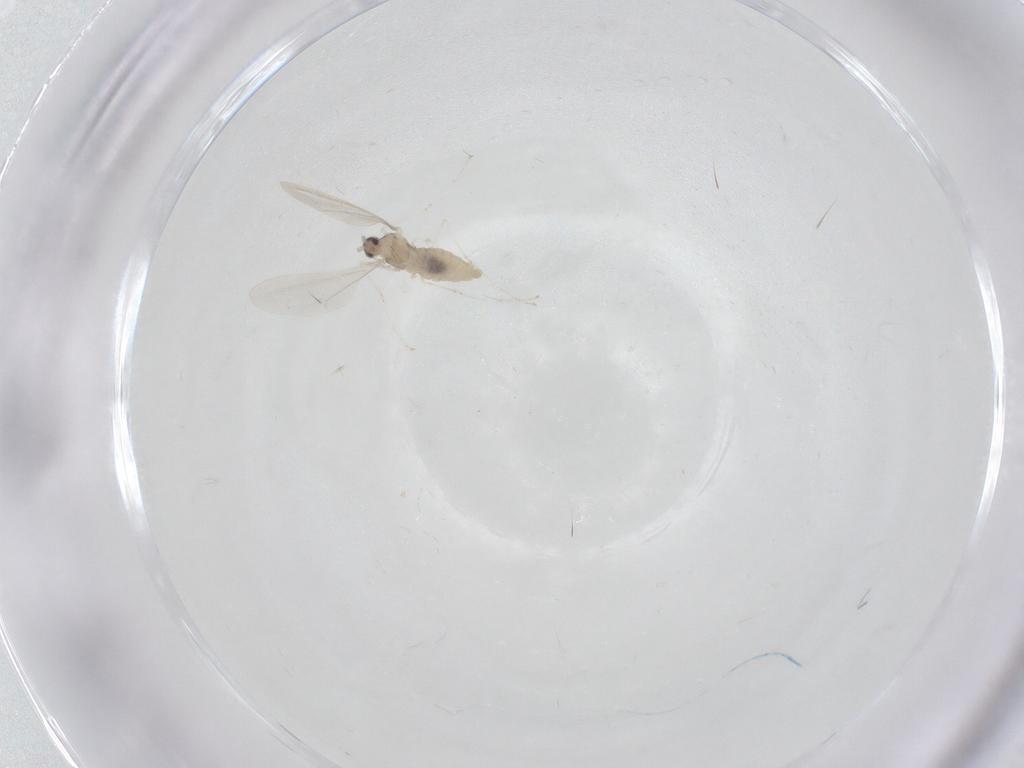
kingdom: Animalia
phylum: Arthropoda
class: Insecta
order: Diptera
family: Cecidomyiidae
